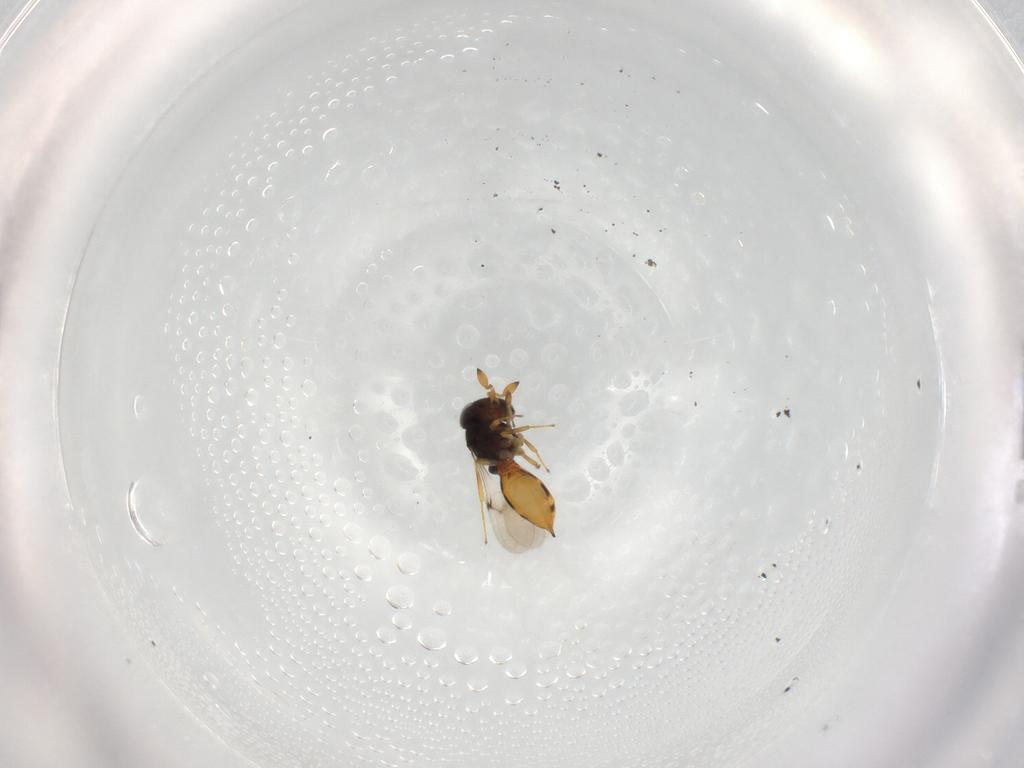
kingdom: Animalia
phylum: Arthropoda
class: Insecta
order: Hymenoptera
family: Scelionidae
